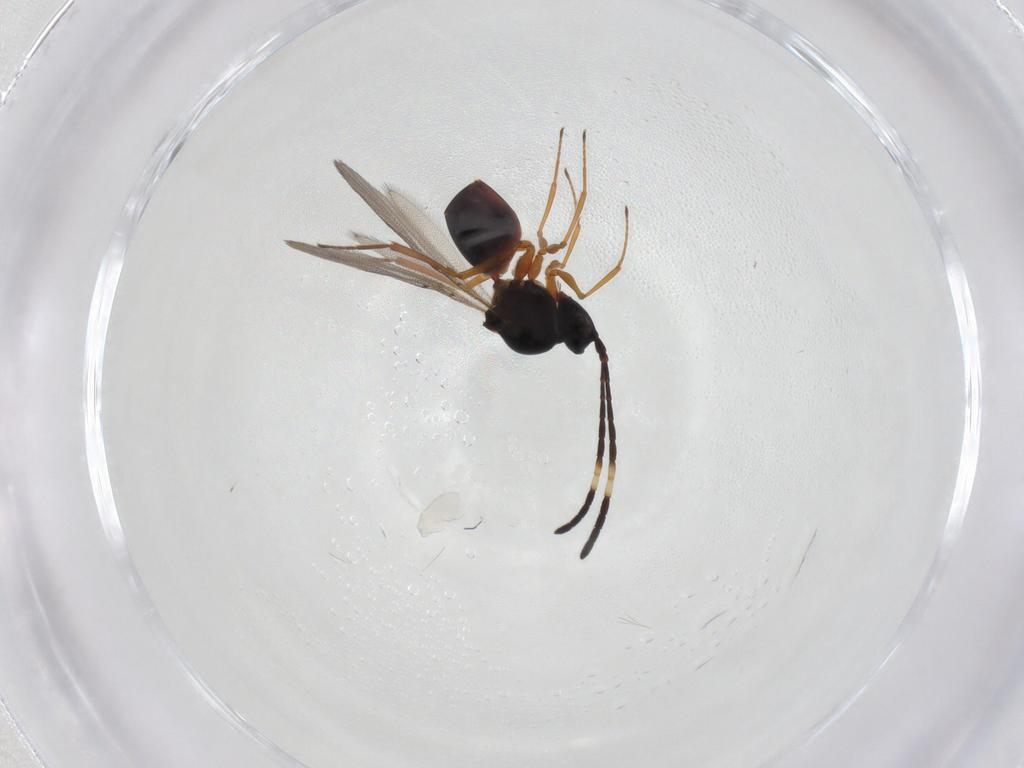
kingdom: Animalia
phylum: Arthropoda
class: Insecta
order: Hymenoptera
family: Figitidae
